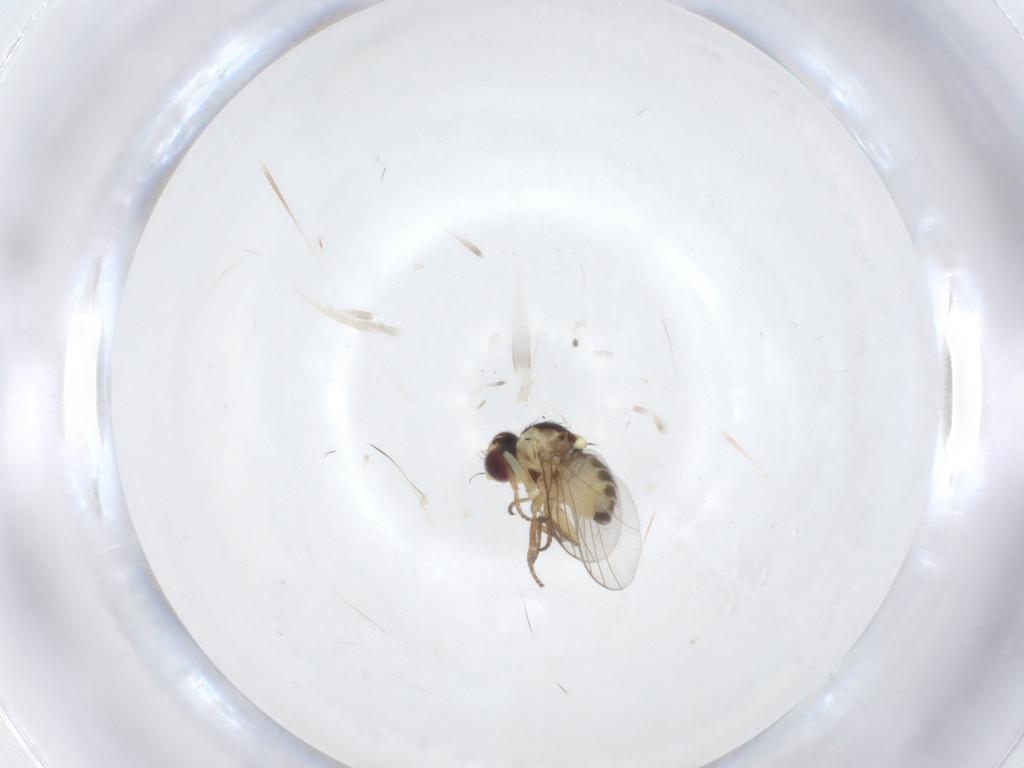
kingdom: Animalia
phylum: Arthropoda
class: Insecta
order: Diptera
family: Agromyzidae
